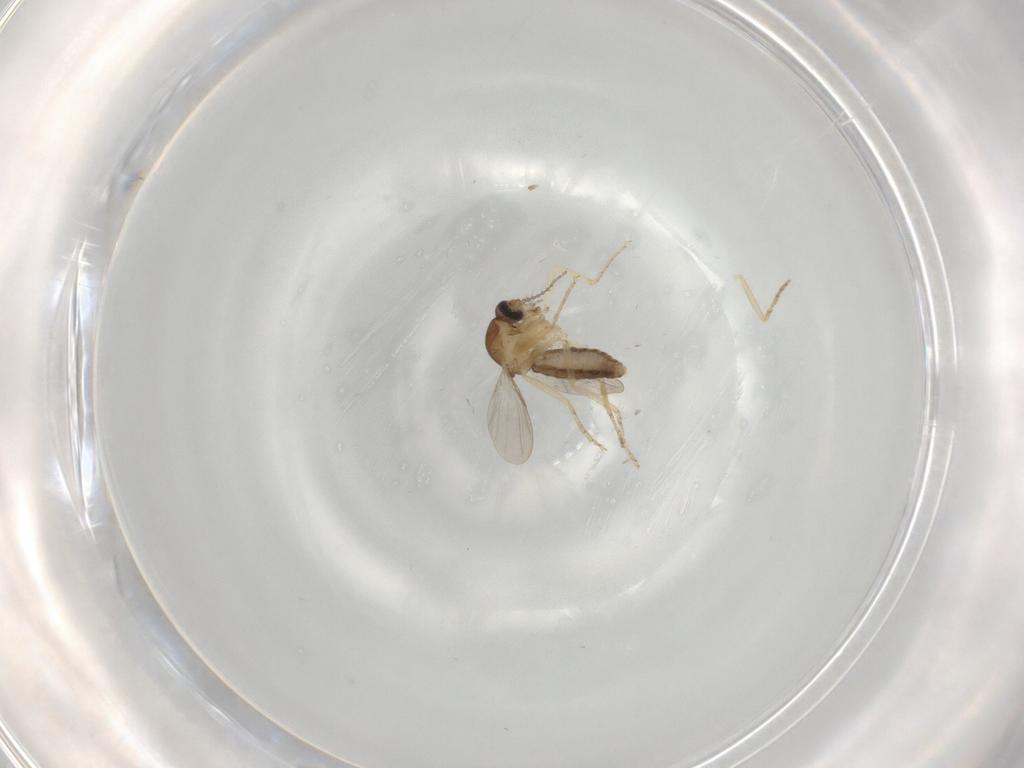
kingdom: Animalia
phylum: Arthropoda
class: Insecta
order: Diptera
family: Ceratopogonidae
